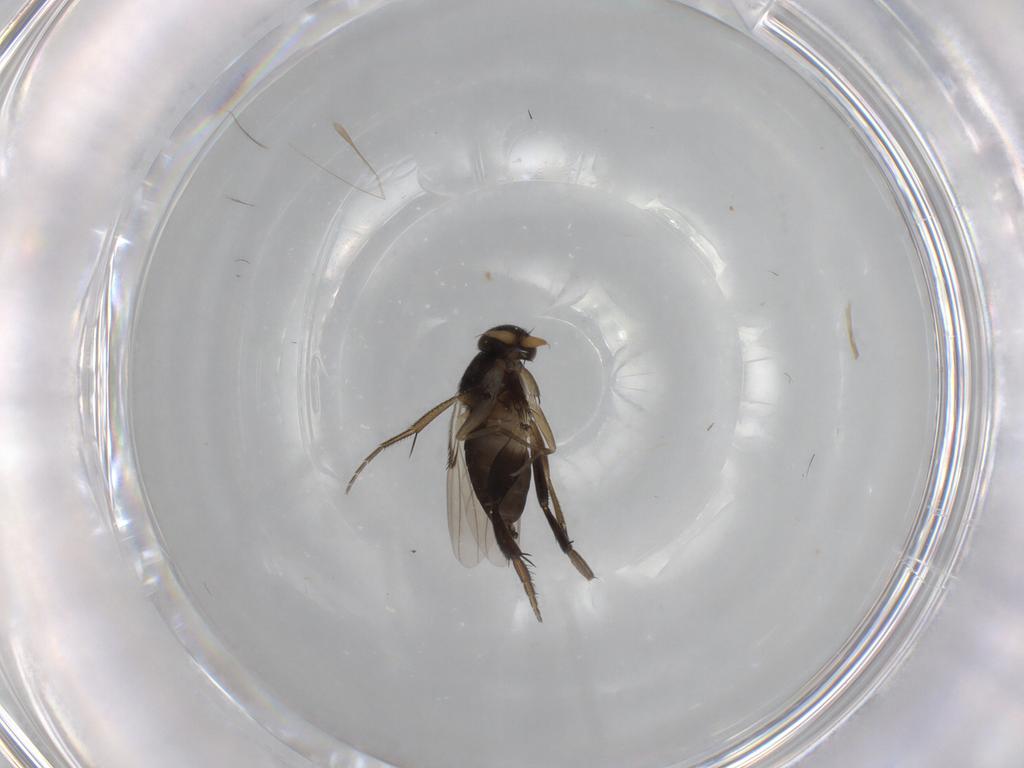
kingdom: Animalia
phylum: Arthropoda
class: Insecta
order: Diptera
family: Phoridae
